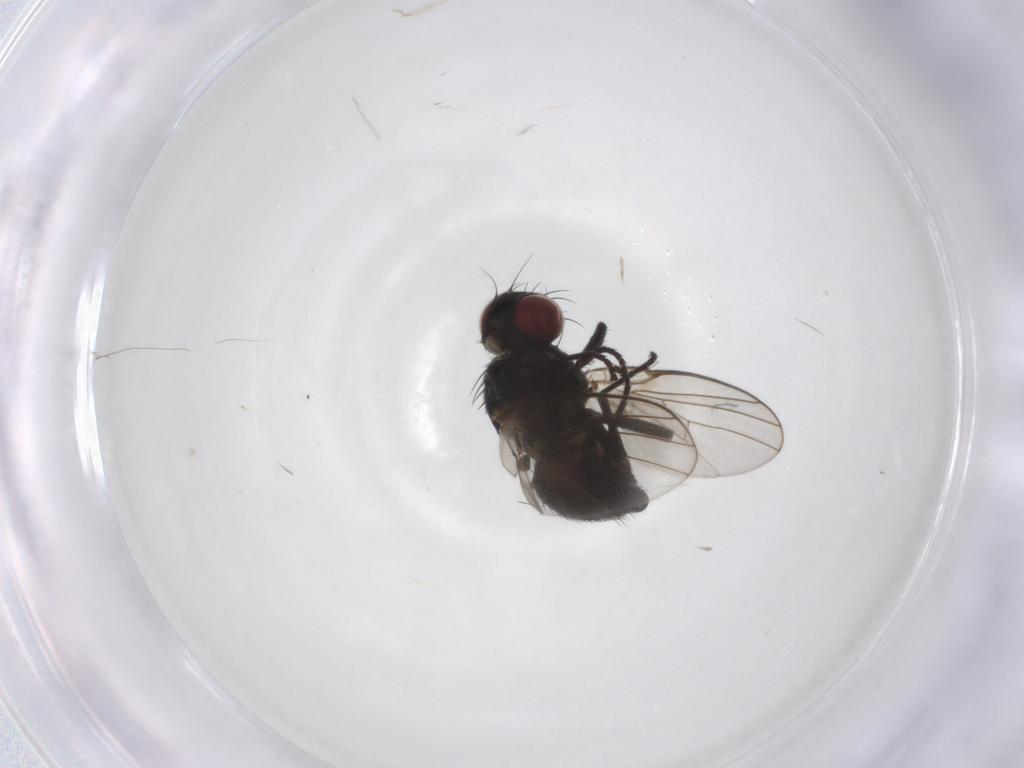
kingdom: Animalia
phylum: Arthropoda
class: Insecta
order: Diptera
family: Agromyzidae
